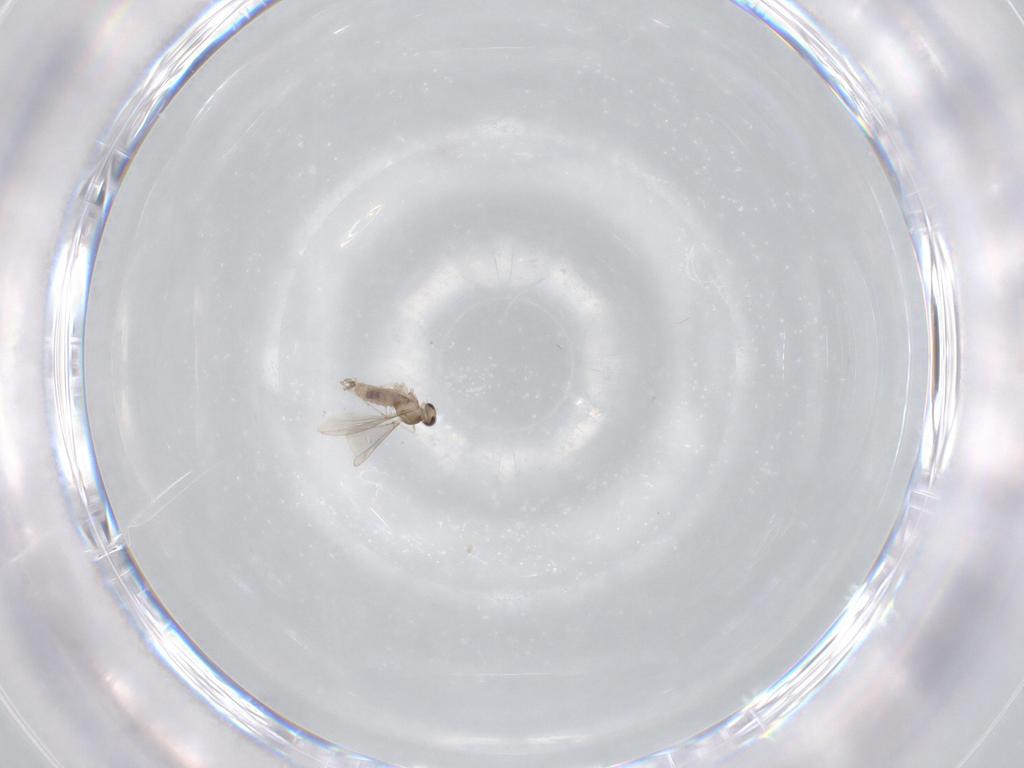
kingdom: Animalia
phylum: Arthropoda
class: Insecta
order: Diptera
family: Cecidomyiidae
